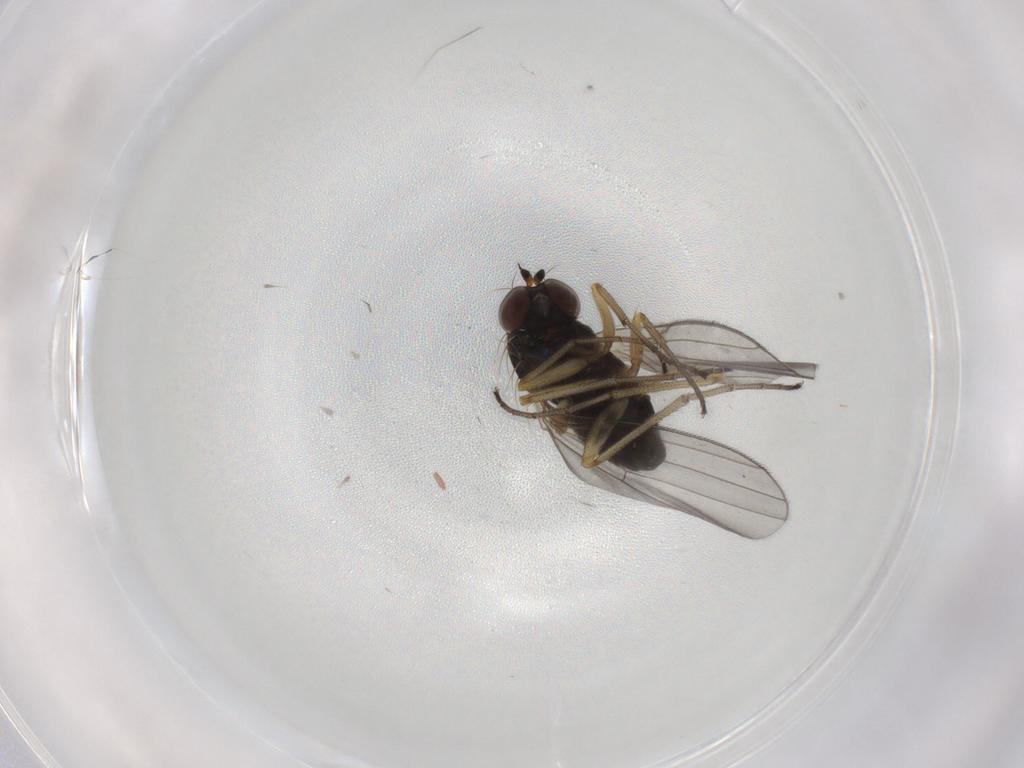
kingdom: Animalia
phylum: Arthropoda
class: Insecta
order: Diptera
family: Dolichopodidae
